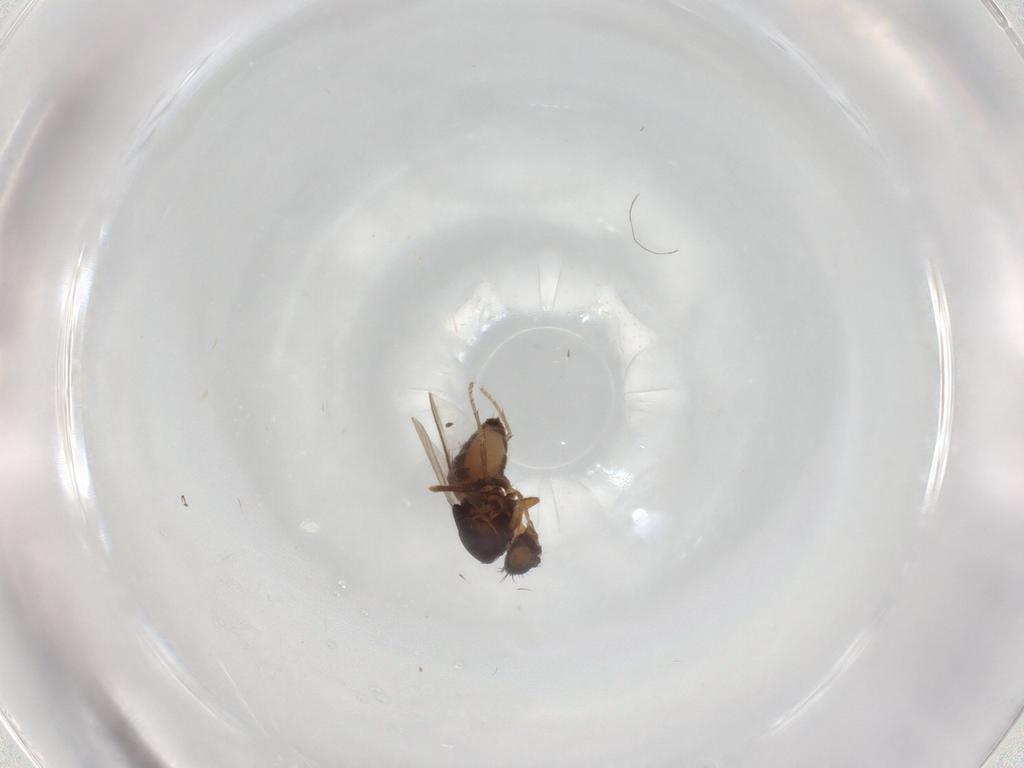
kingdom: Animalia
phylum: Arthropoda
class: Insecta
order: Diptera
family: Sphaeroceridae
